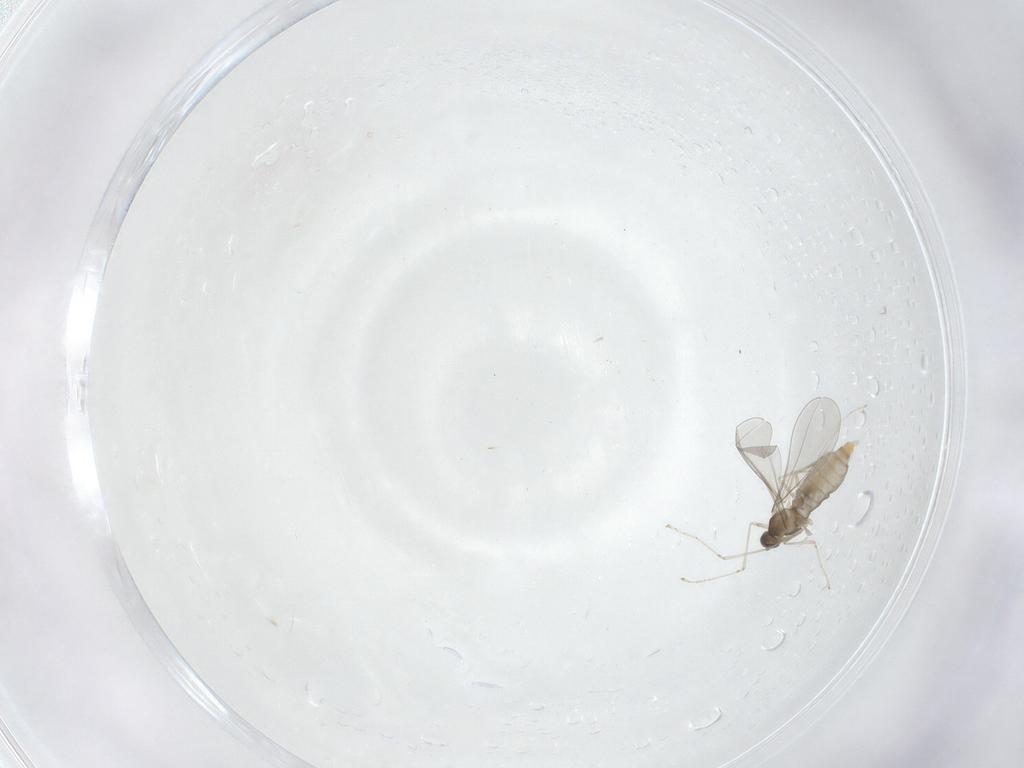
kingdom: Animalia
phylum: Arthropoda
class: Insecta
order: Diptera
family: Cecidomyiidae
